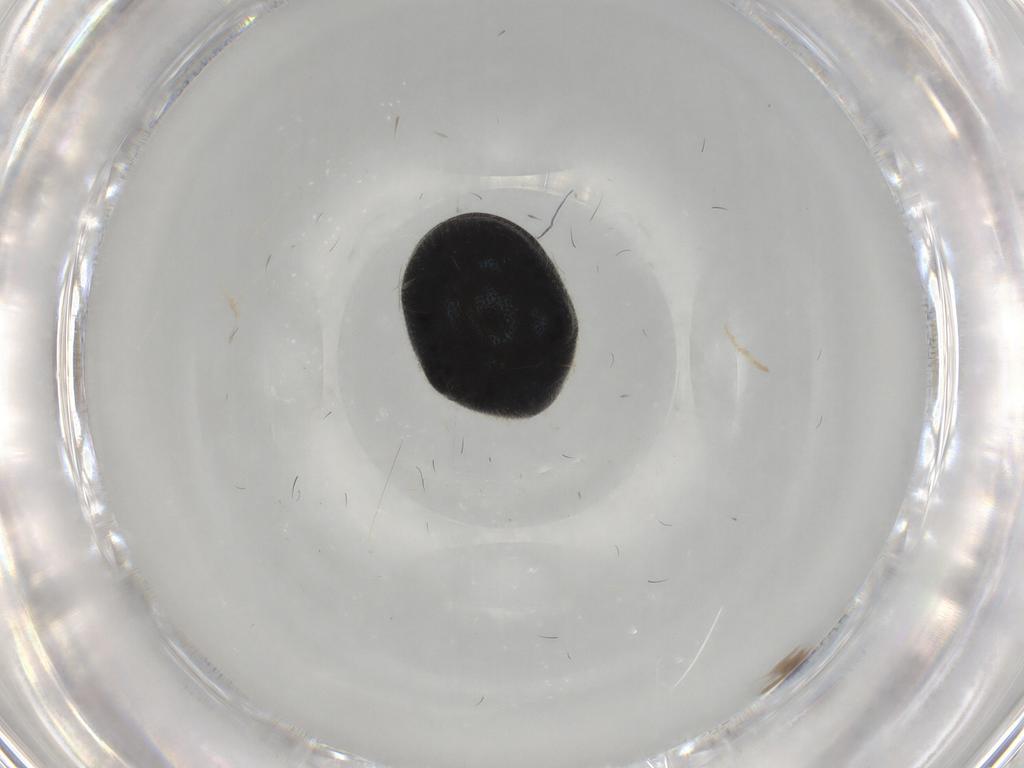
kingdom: Animalia
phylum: Arthropoda
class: Insecta
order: Coleoptera
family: Ptinidae
